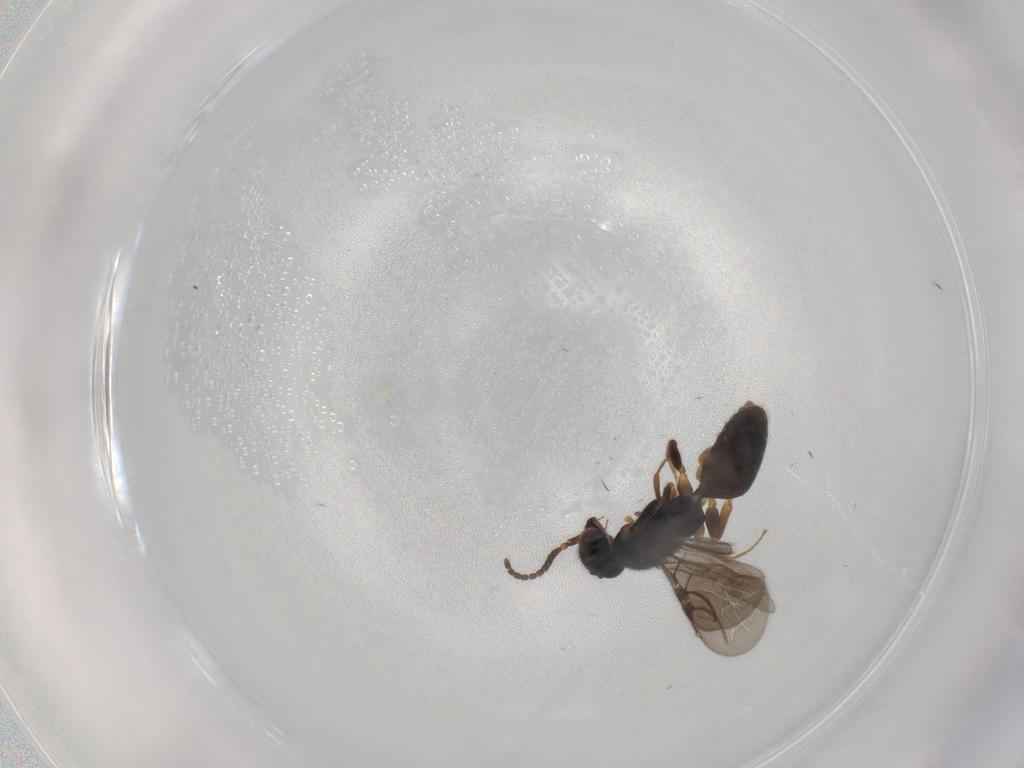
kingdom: Animalia
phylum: Arthropoda
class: Insecta
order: Hymenoptera
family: Bethylidae
